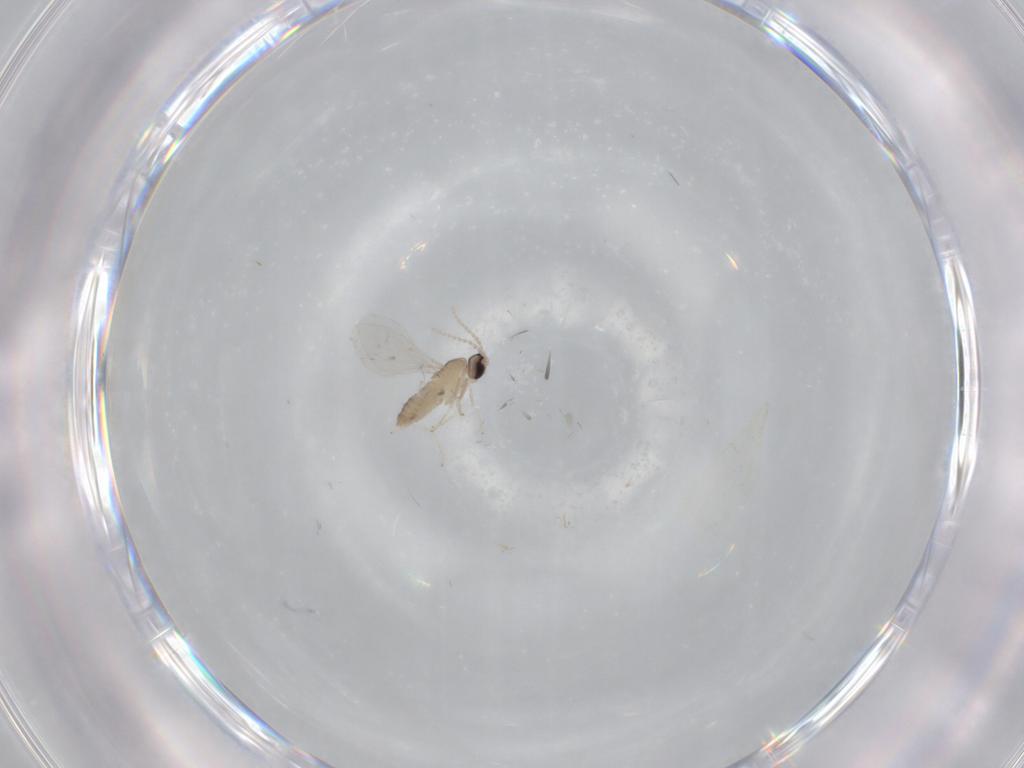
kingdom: Animalia
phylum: Arthropoda
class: Insecta
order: Diptera
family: Cecidomyiidae
